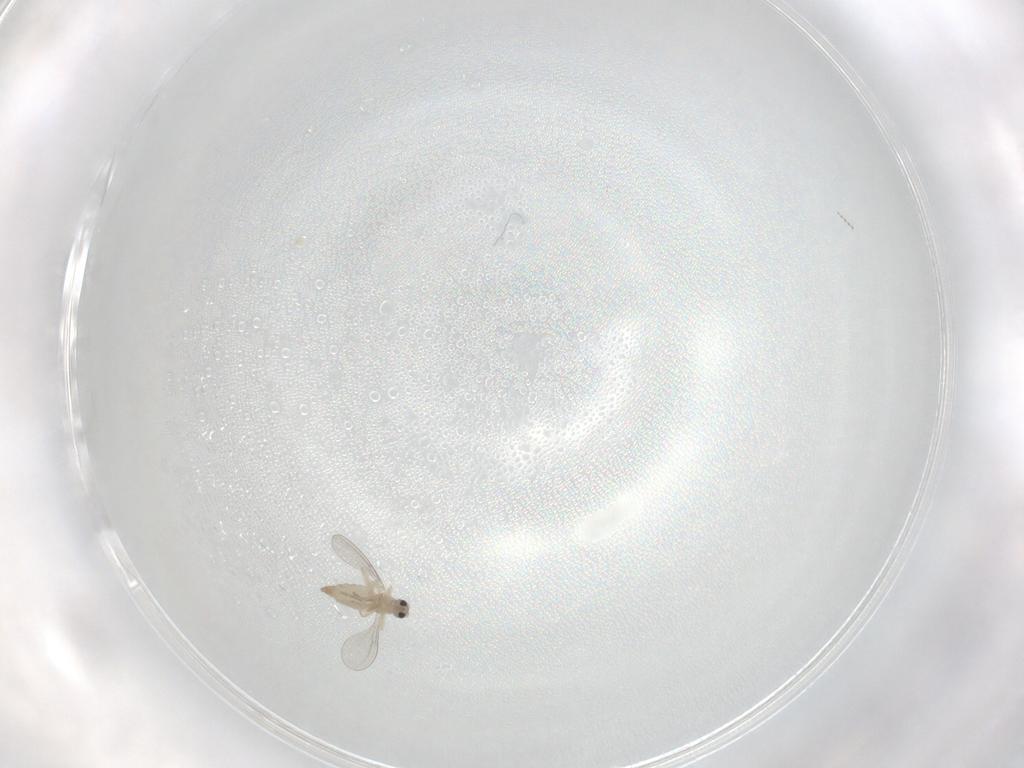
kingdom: Animalia
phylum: Arthropoda
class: Insecta
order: Diptera
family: Cecidomyiidae
